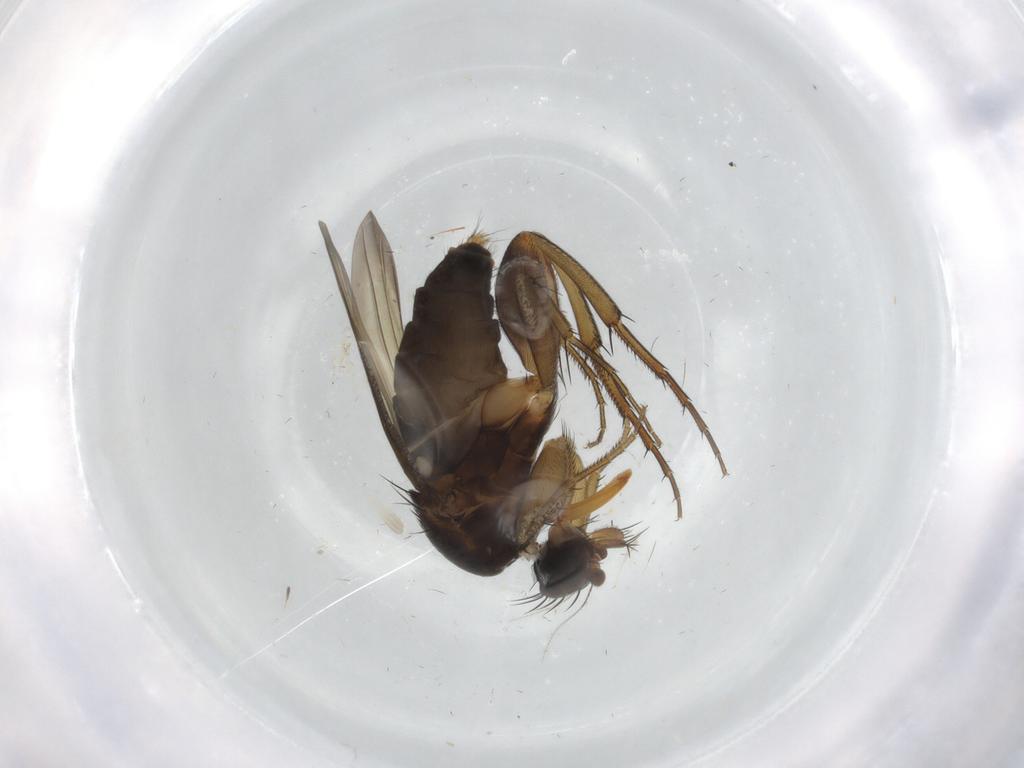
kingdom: Animalia
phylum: Arthropoda
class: Insecta
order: Diptera
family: Phoridae
